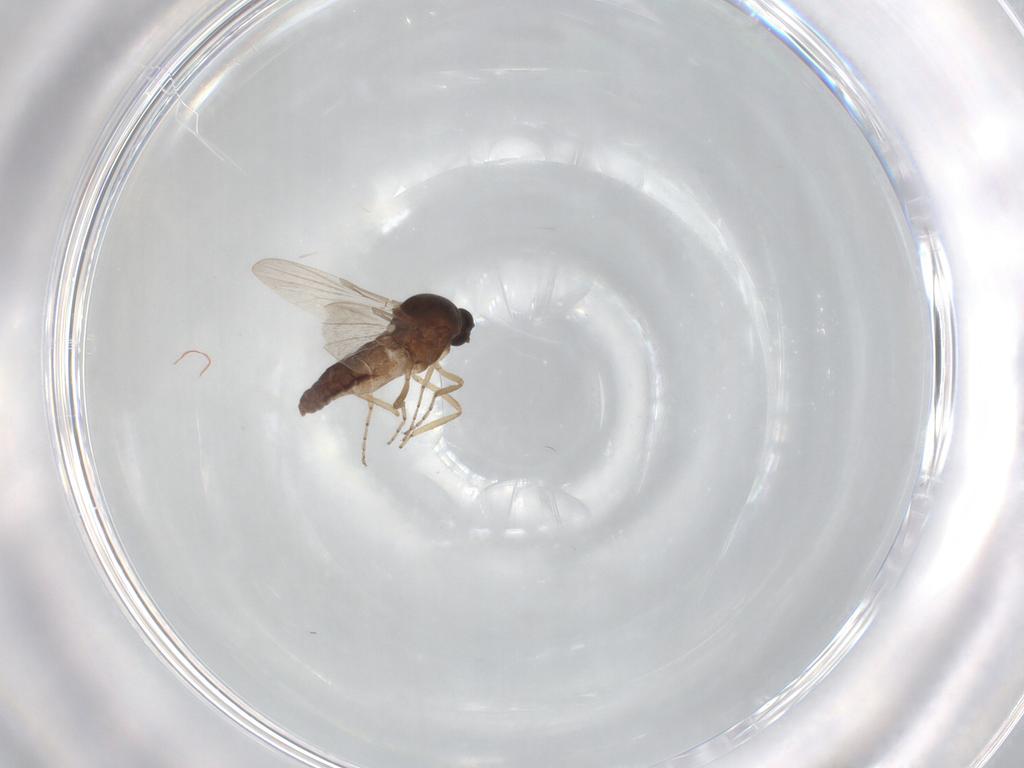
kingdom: Animalia
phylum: Arthropoda
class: Insecta
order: Diptera
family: Ceratopogonidae
